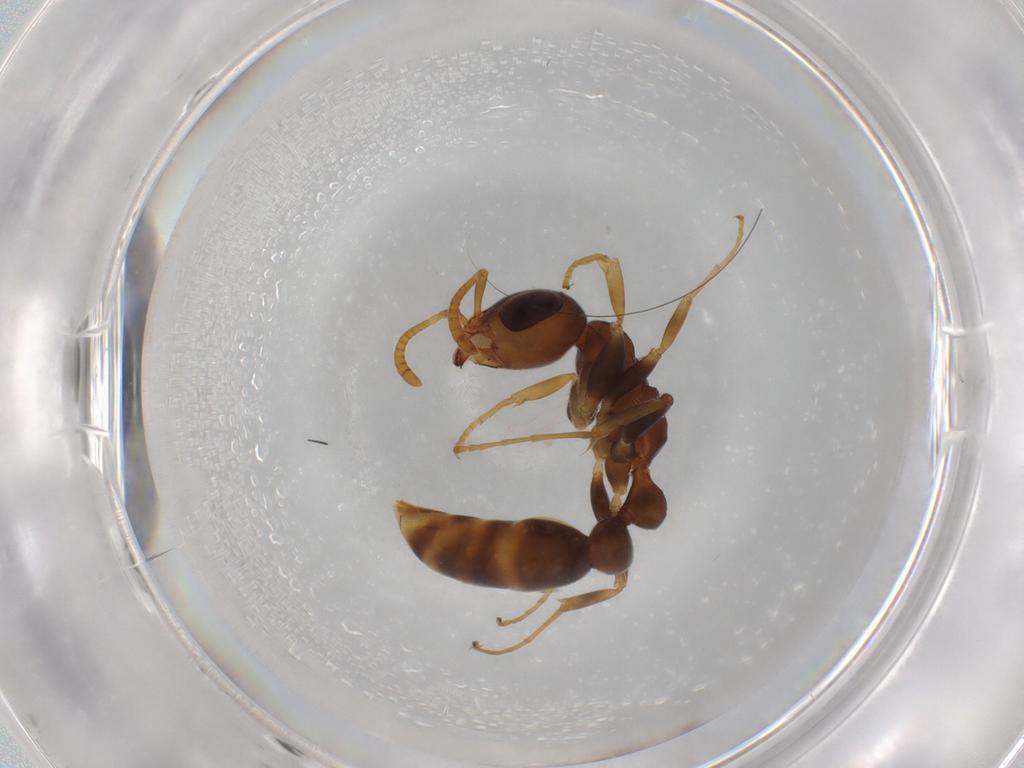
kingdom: Animalia
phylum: Arthropoda
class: Insecta
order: Hymenoptera
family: Formicidae
